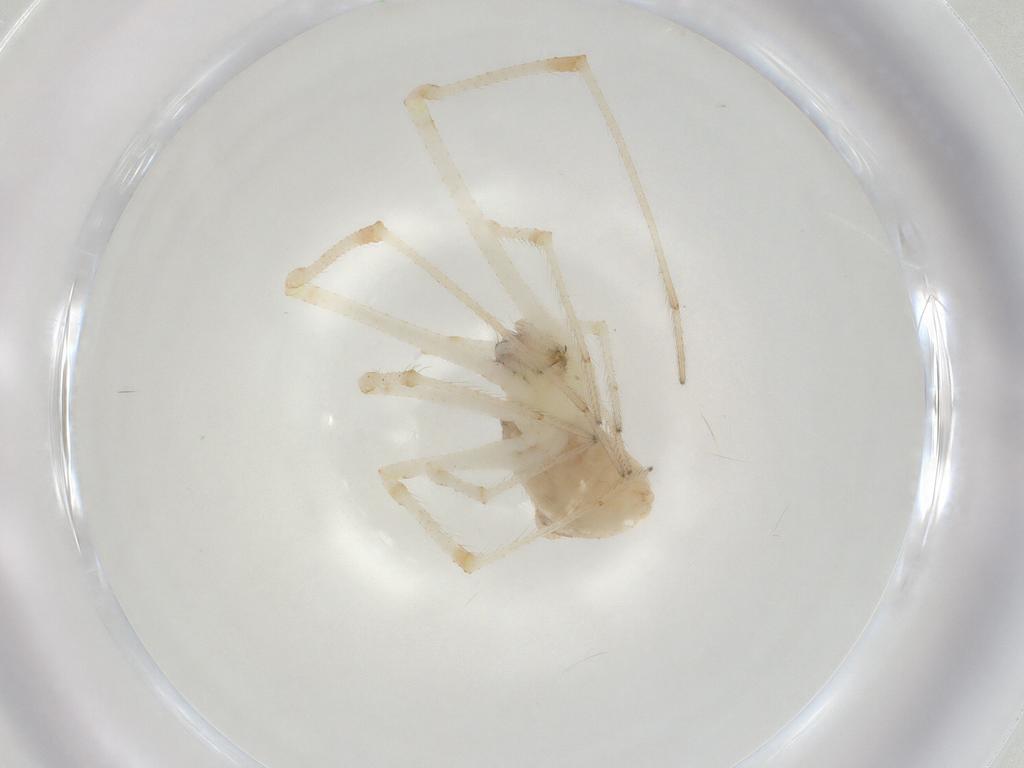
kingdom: Animalia
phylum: Arthropoda
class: Arachnida
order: Araneae
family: Theridiidae
